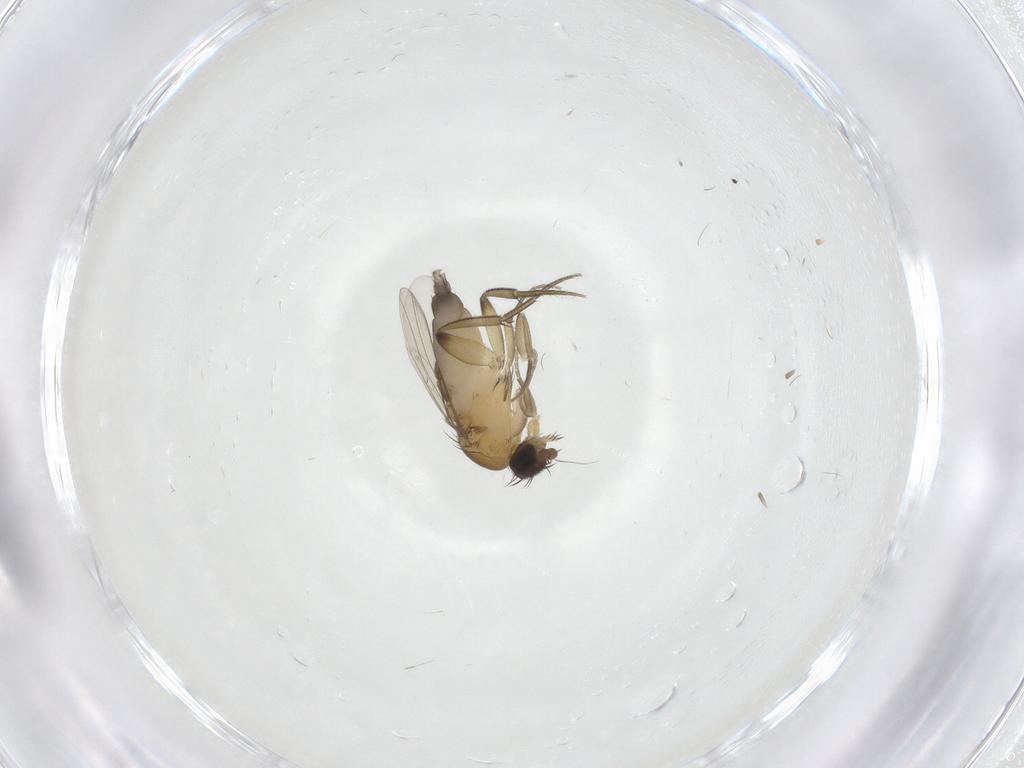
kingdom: Animalia
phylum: Arthropoda
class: Insecta
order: Diptera
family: Phoridae
